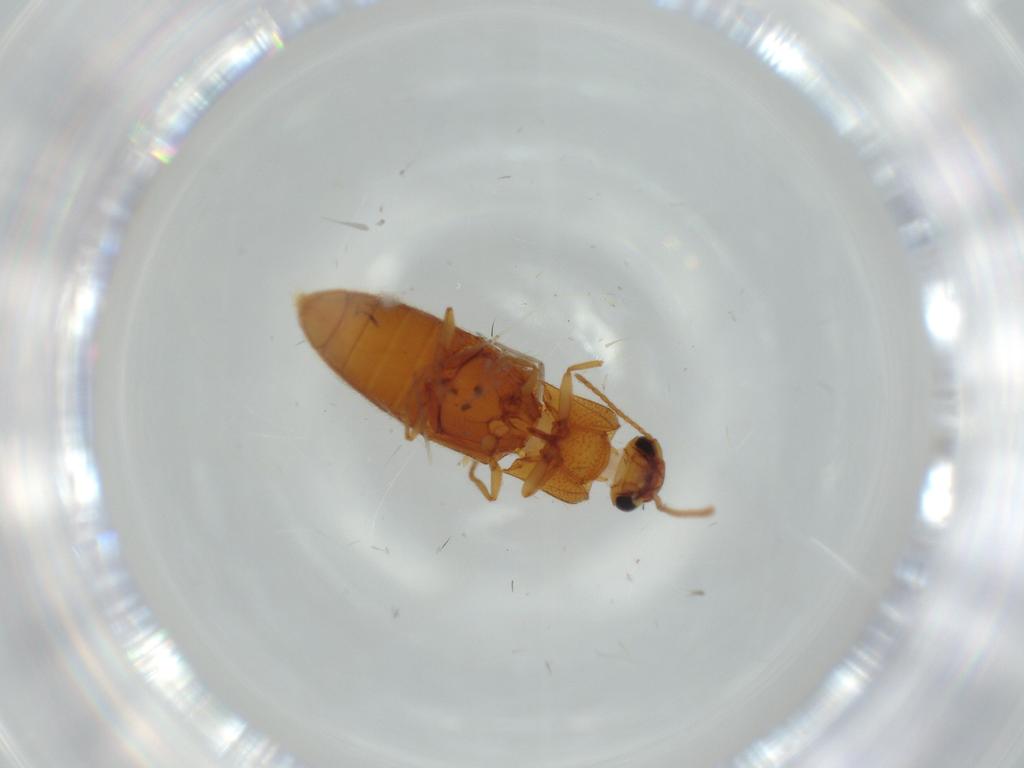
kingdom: Animalia
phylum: Arthropoda
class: Insecta
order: Coleoptera
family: Elateridae
